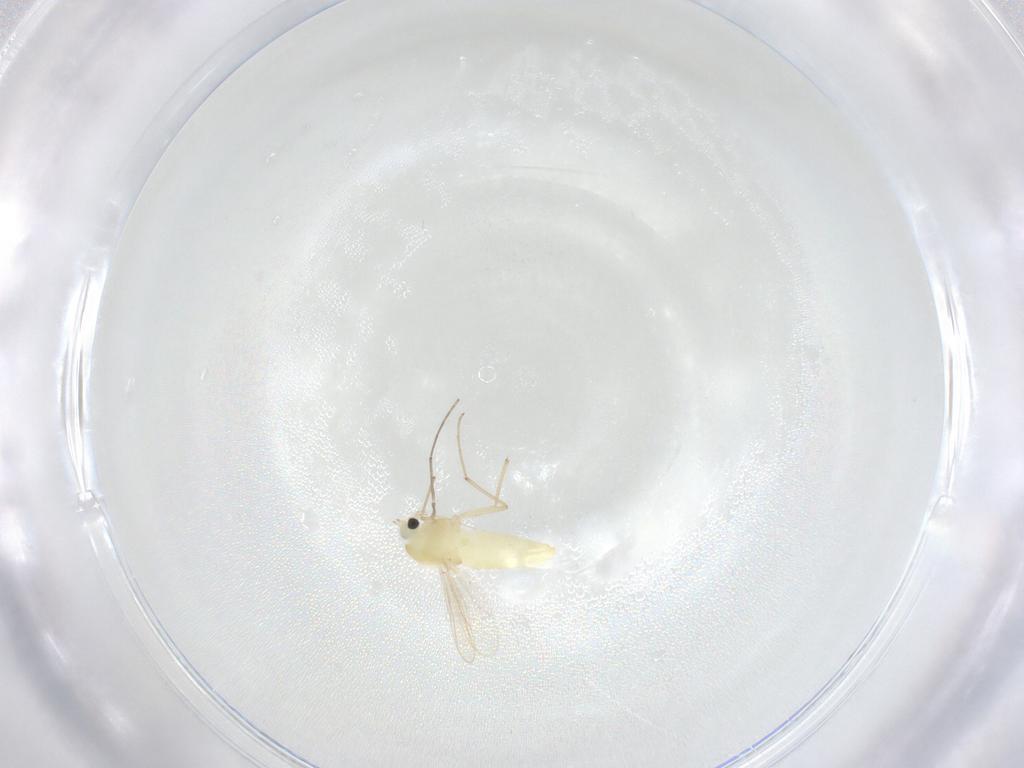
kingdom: Animalia
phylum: Arthropoda
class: Insecta
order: Diptera
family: Chironomidae
